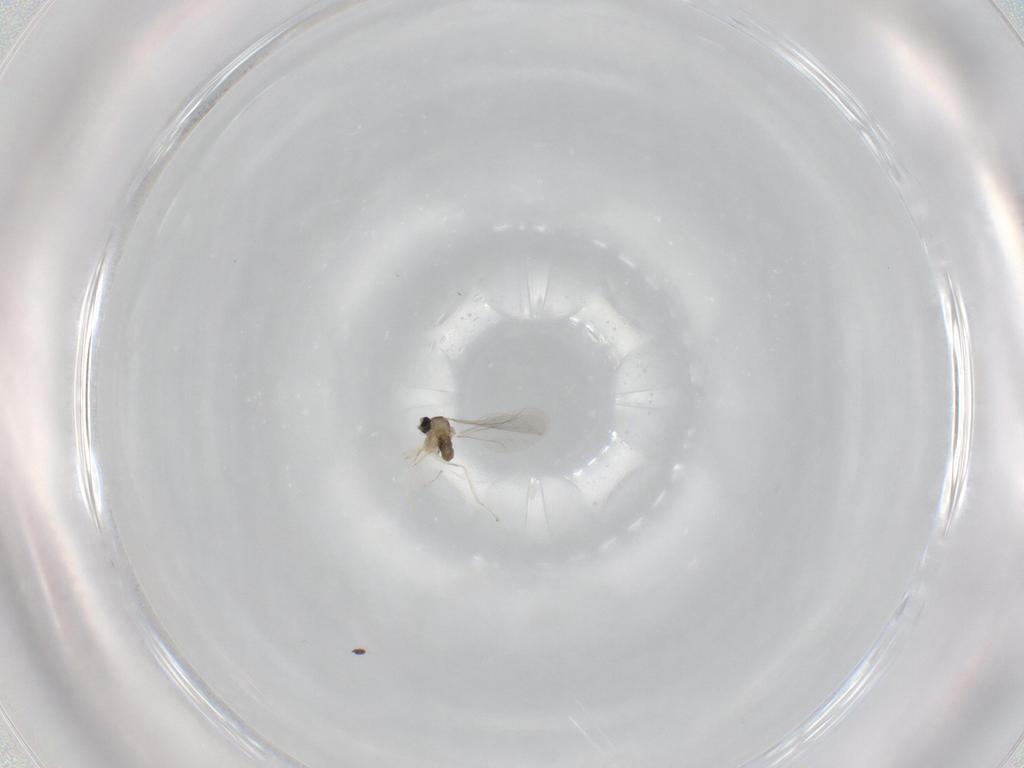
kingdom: Animalia
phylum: Arthropoda
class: Insecta
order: Diptera
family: Cecidomyiidae
